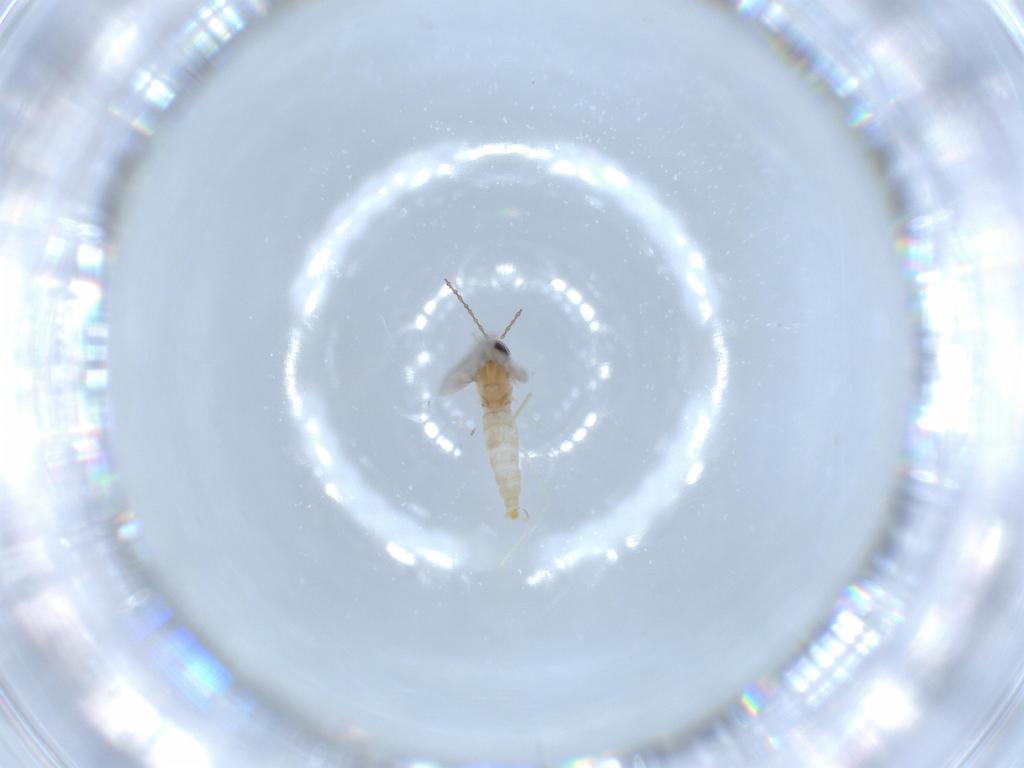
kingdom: Animalia
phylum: Arthropoda
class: Insecta
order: Diptera
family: Cecidomyiidae
